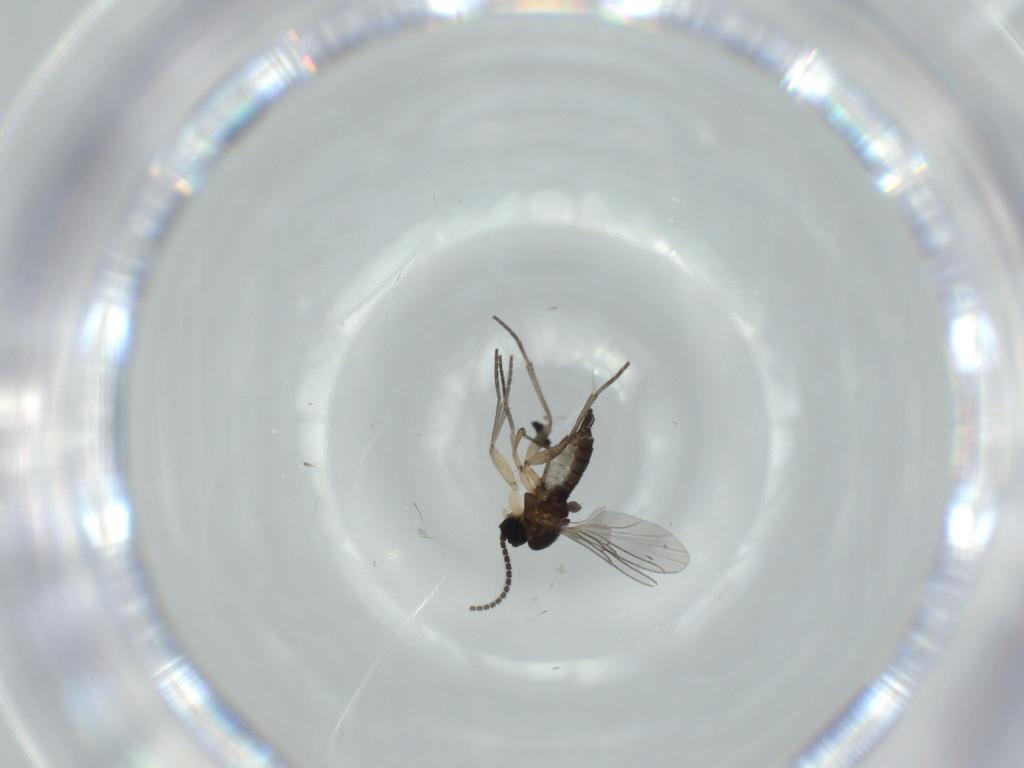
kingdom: Animalia
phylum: Arthropoda
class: Insecta
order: Diptera
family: Sciaridae
